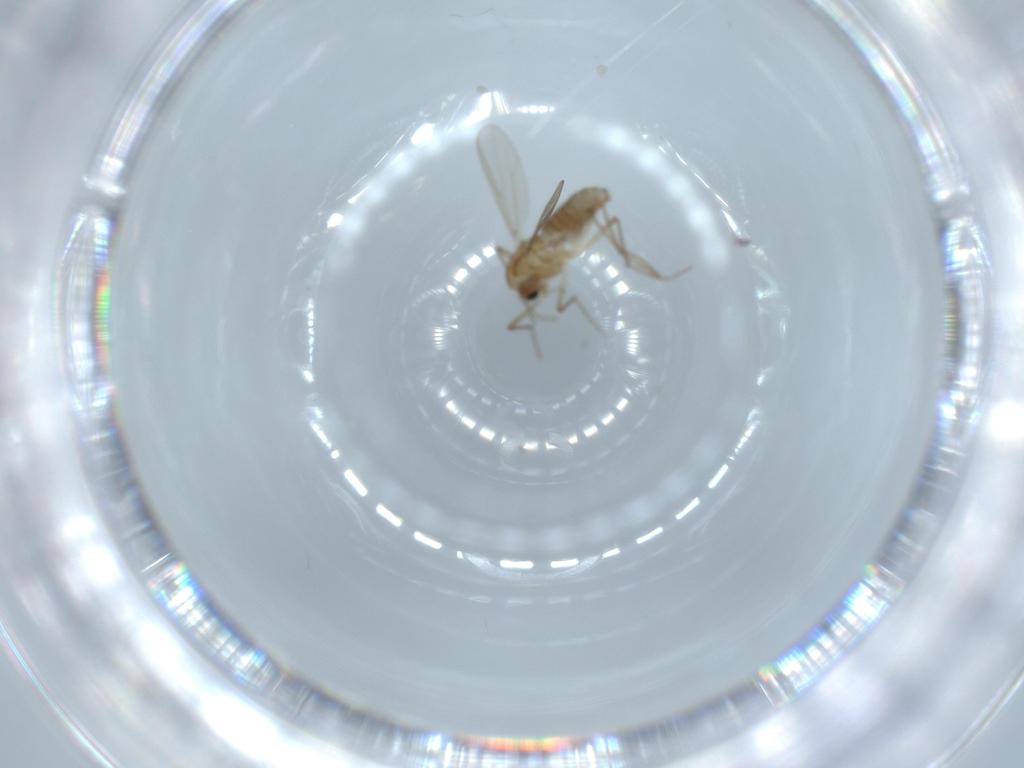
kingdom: Animalia
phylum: Arthropoda
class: Insecta
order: Diptera
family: Chironomidae
